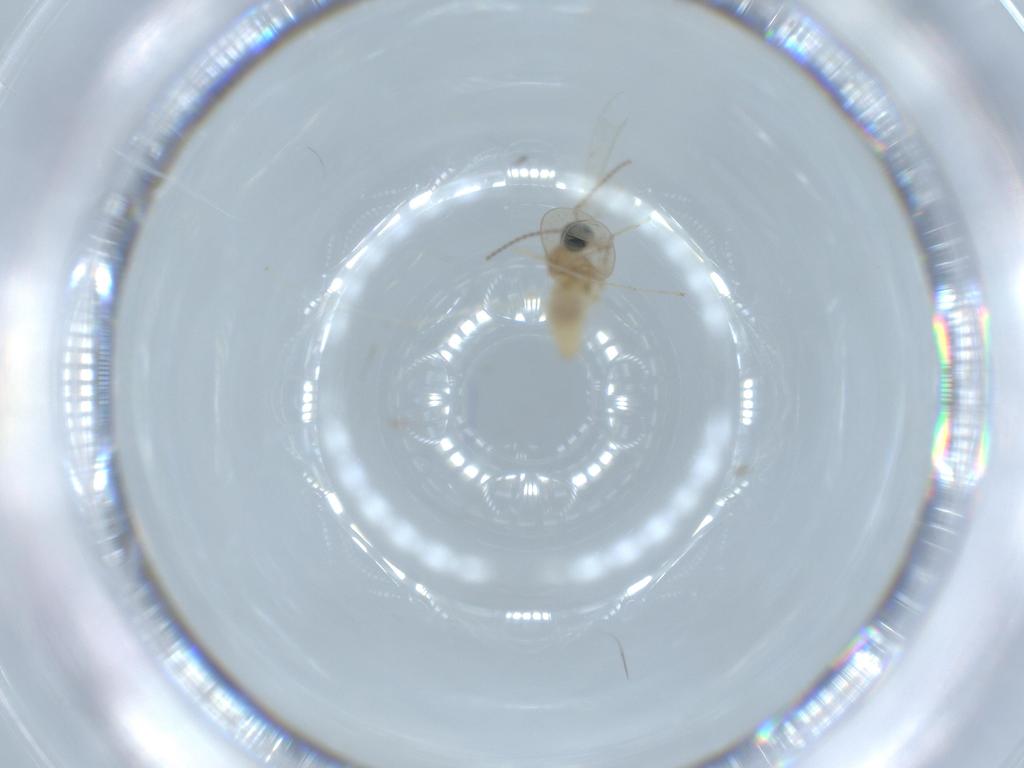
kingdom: Animalia
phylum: Arthropoda
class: Insecta
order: Diptera
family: Cecidomyiidae
